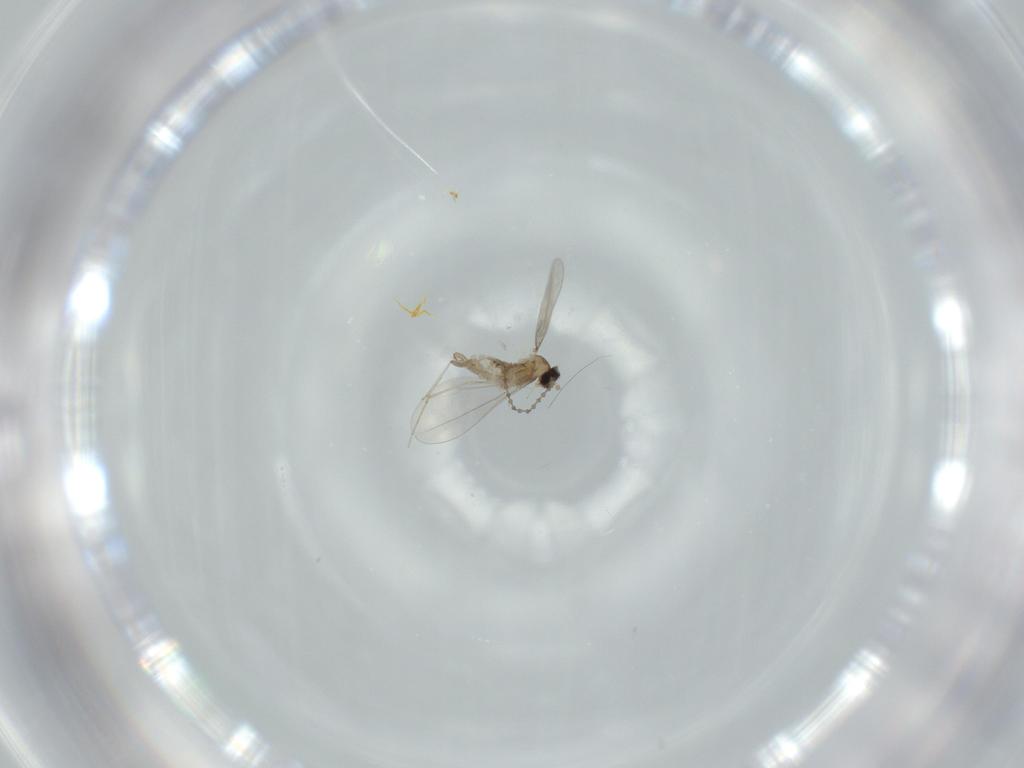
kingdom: Animalia
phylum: Arthropoda
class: Insecta
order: Diptera
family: Cecidomyiidae
